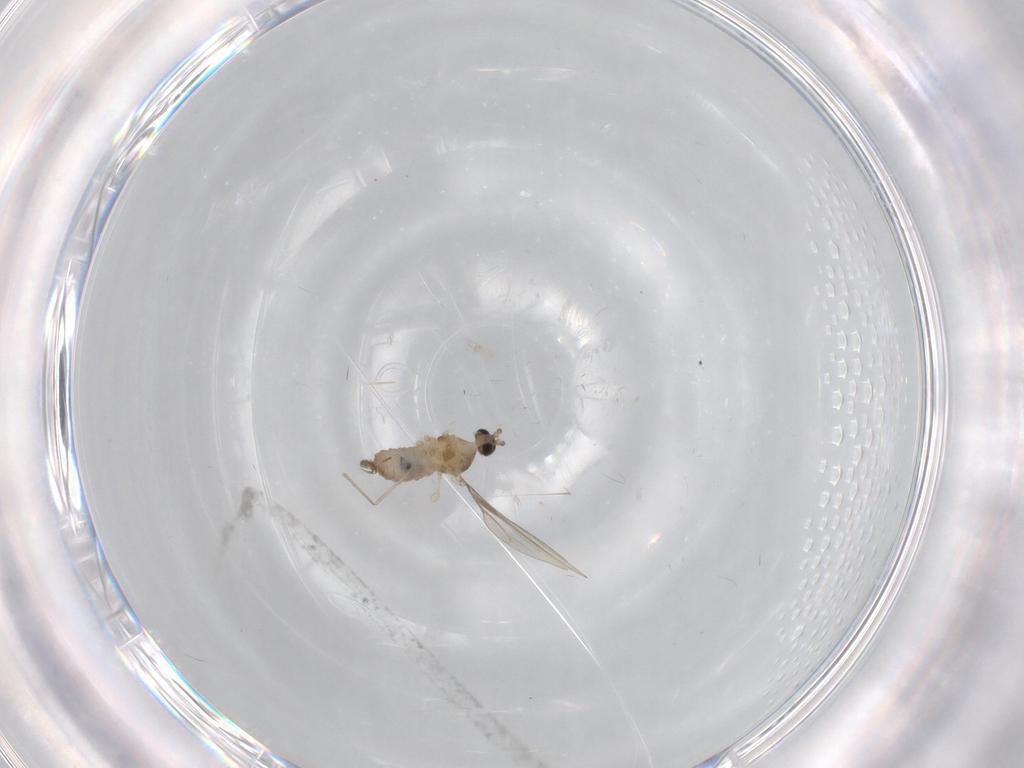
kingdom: Animalia
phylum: Arthropoda
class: Insecta
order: Diptera
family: Cecidomyiidae
